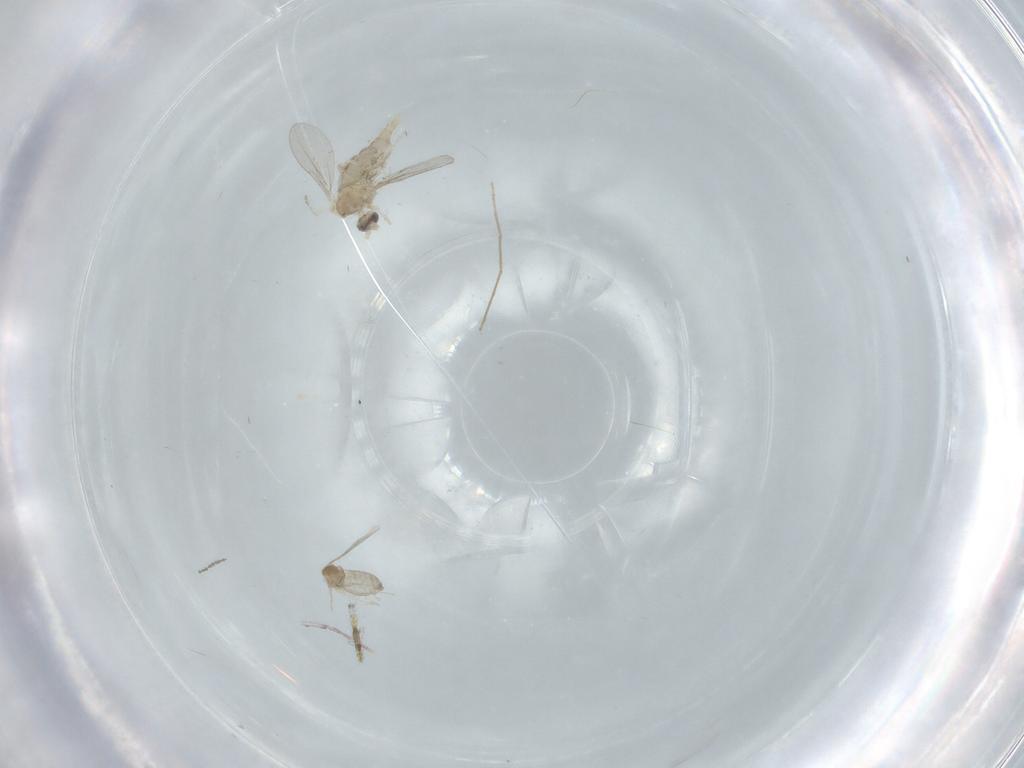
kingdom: Animalia
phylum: Arthropoda
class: Insecta
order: Diptera
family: Cecidomyiidae
